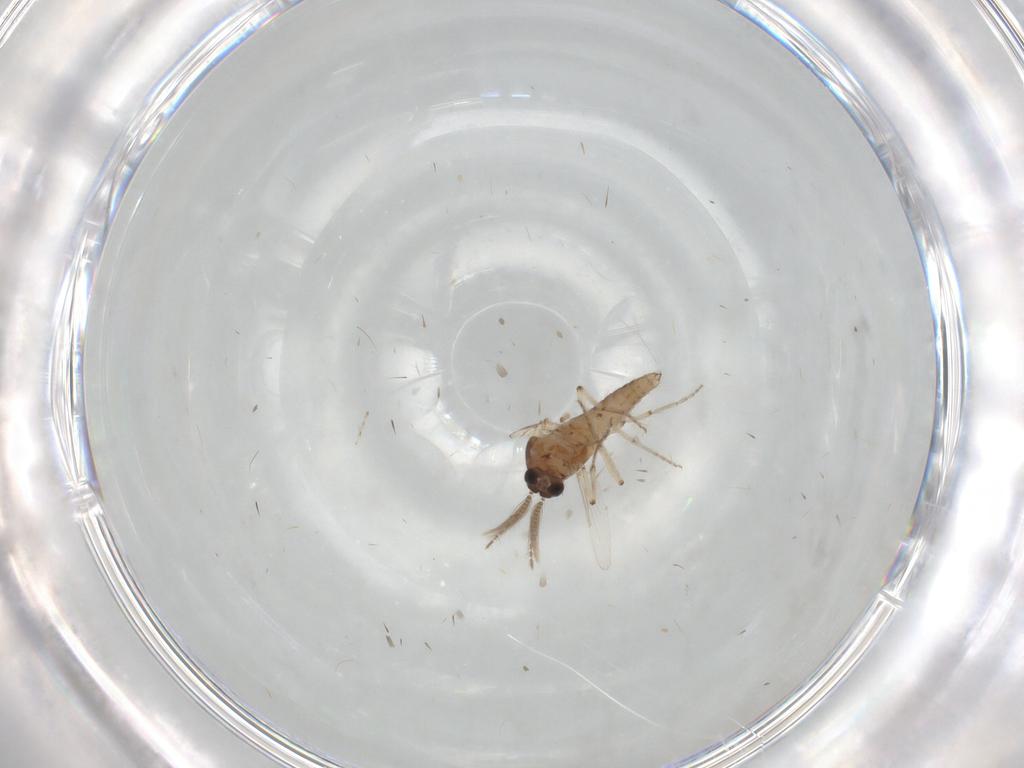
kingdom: Animalia
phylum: Arthropoda
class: Insecta
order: Diptera
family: Ceratopogonidae
